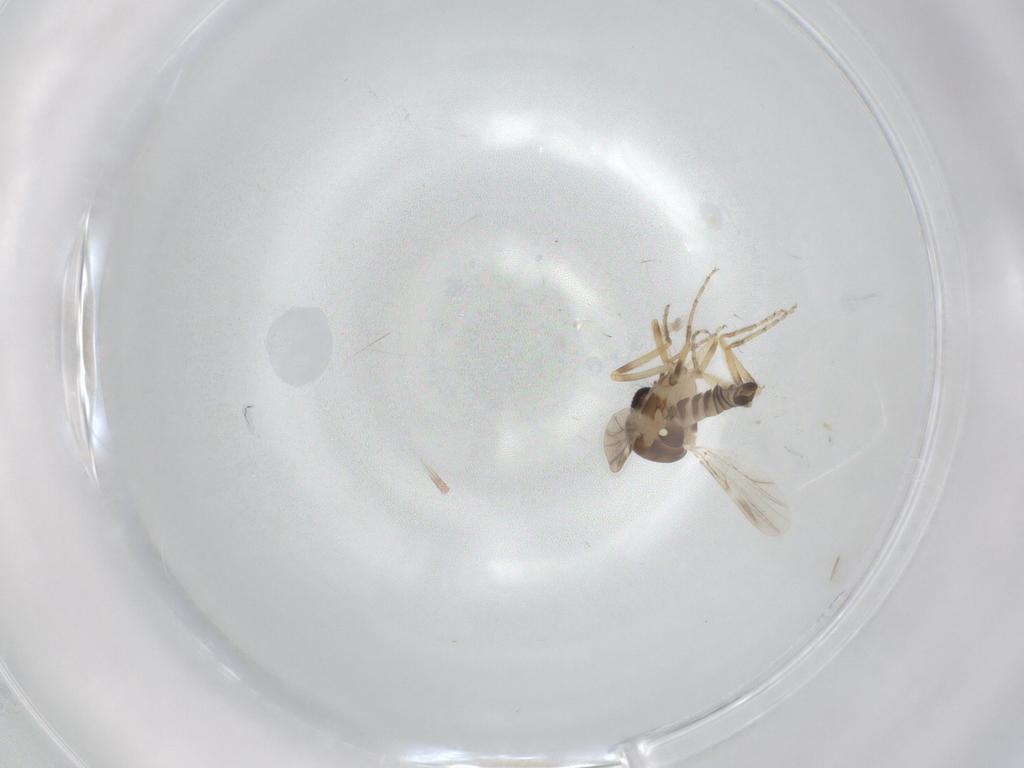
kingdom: Animalia
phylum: Arthropoda
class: Insecta
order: Diptera
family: Ceratopogonidae
